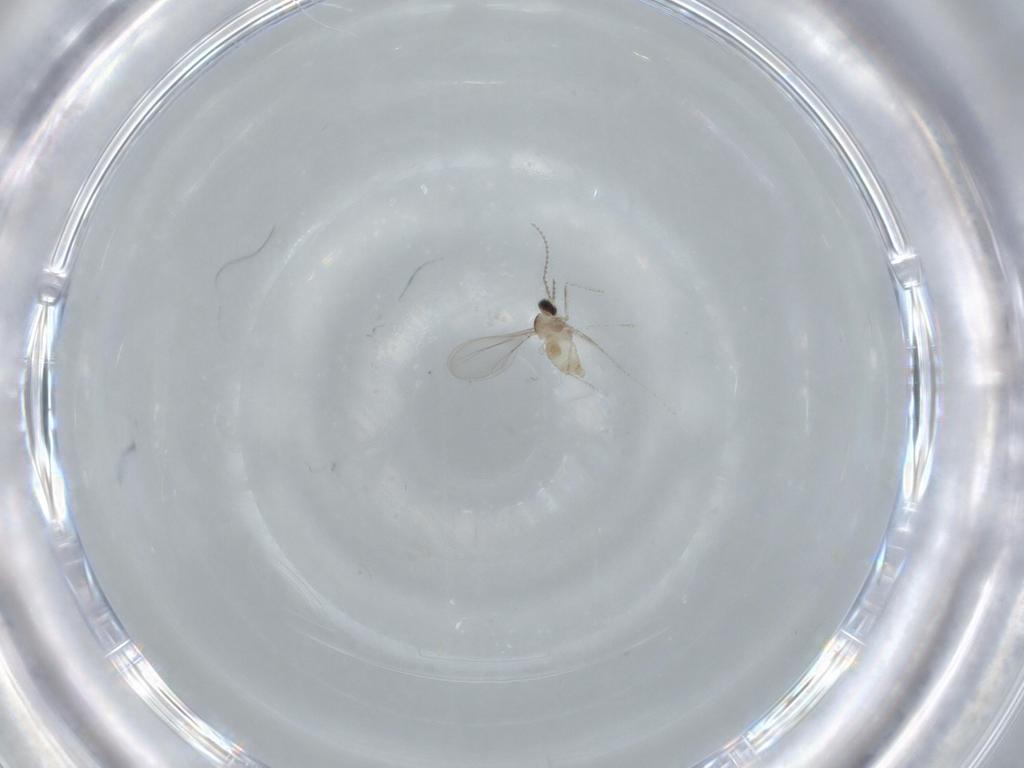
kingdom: Animalia
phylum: Arthropoda
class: Insecta
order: Diptera
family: Cecidomyiidae
